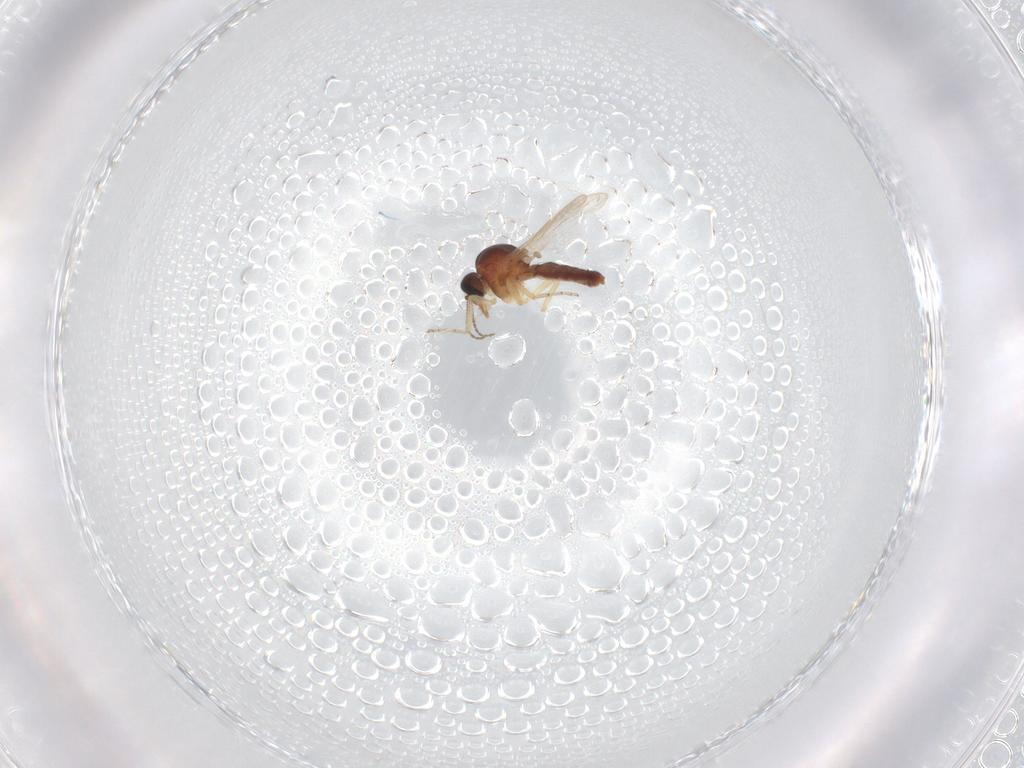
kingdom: Animalia
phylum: Arthropoda
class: Insecta
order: Diptera
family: Ceratopogonidae
